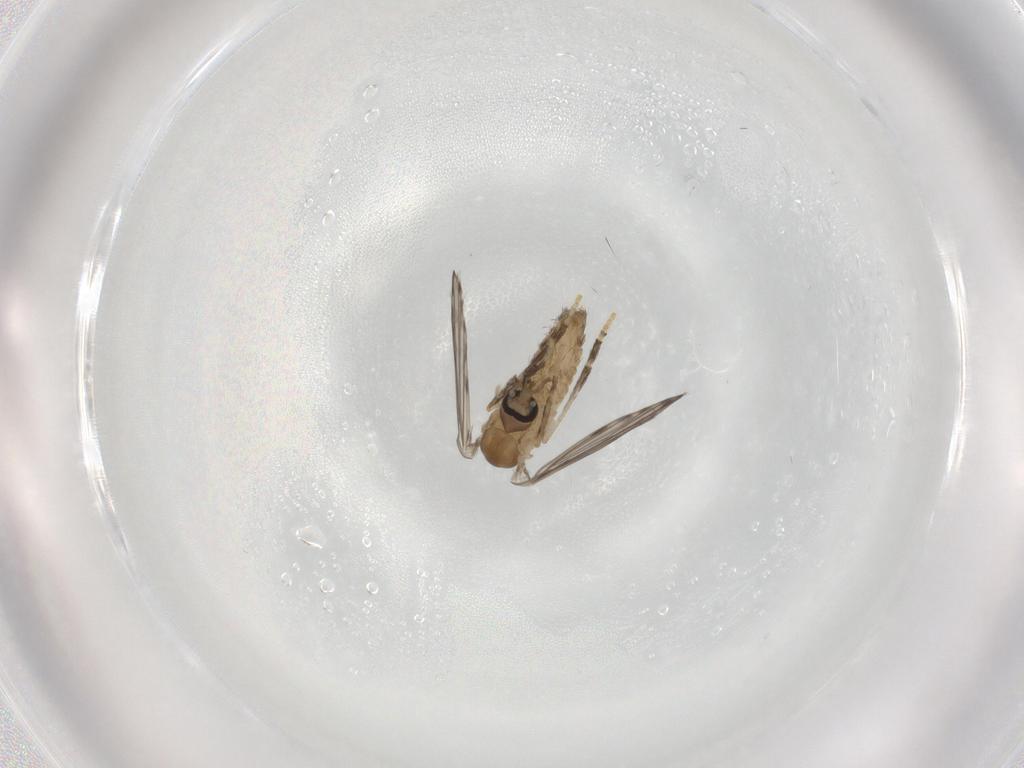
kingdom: Animalia
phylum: Arthropoda
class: Insecta
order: Diptera
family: Psychodidae
